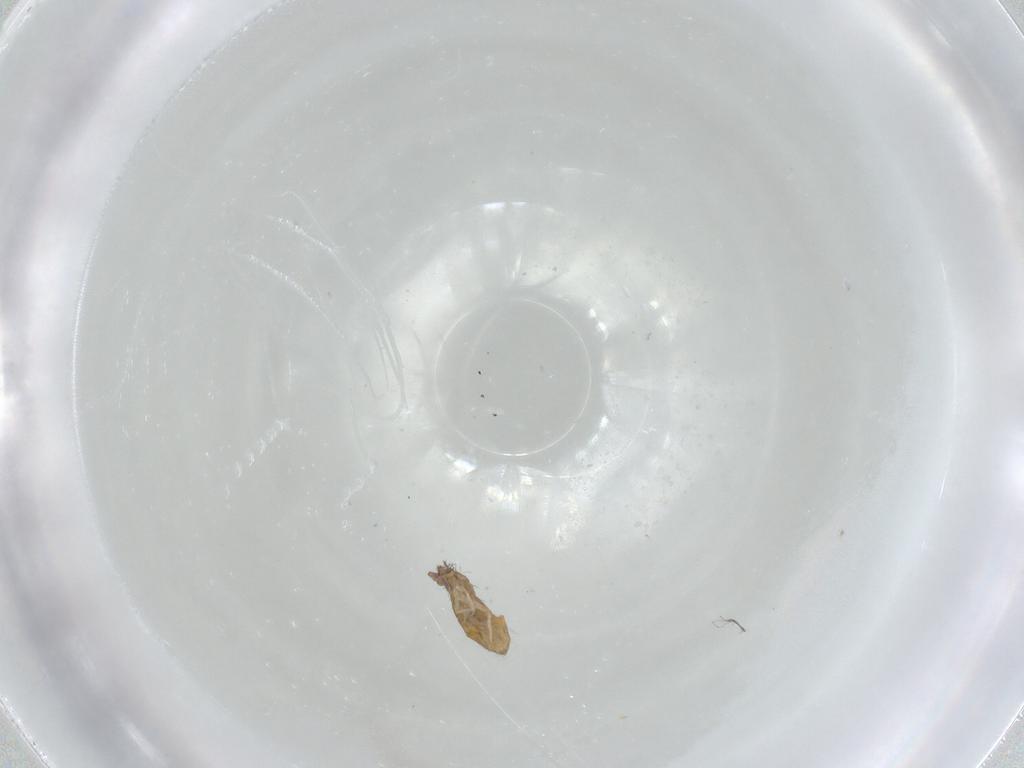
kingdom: Animalia
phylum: Arthropoda
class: Collembola
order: Entomobryomorpha
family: Entomobryidae
